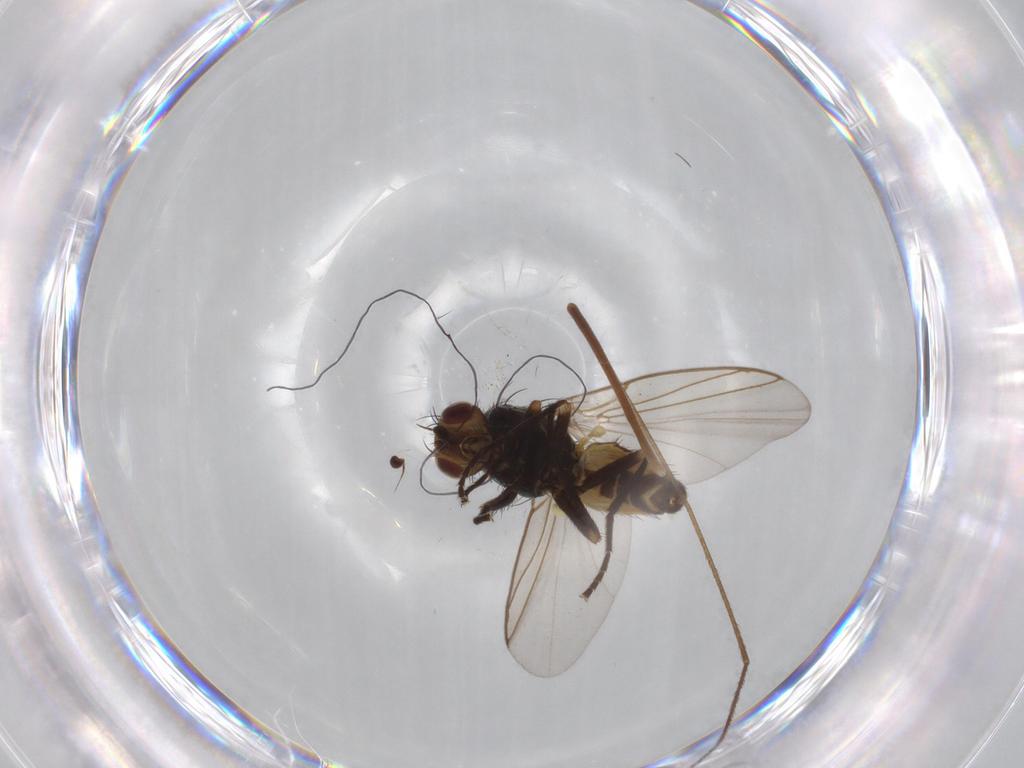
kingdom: Animalia
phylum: Arthropoda
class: Insecta
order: Diptera
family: Agromyzidae
